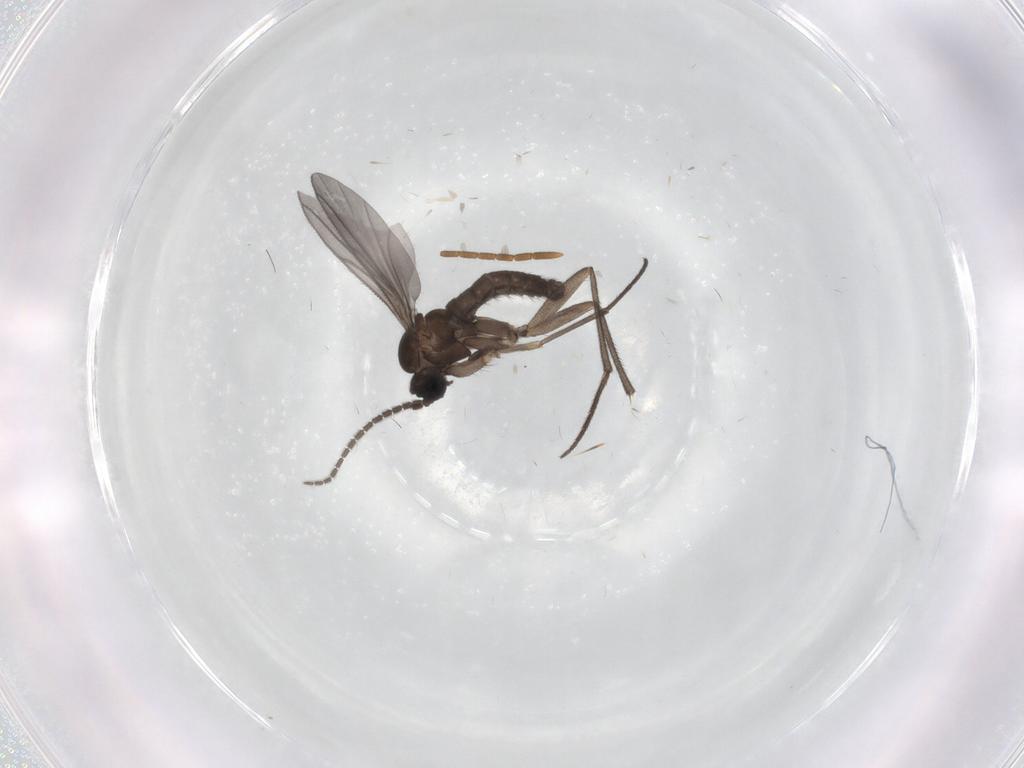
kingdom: Animalia
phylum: Arthropoda
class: Insecta
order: Diptera
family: Ceratopogonidae
